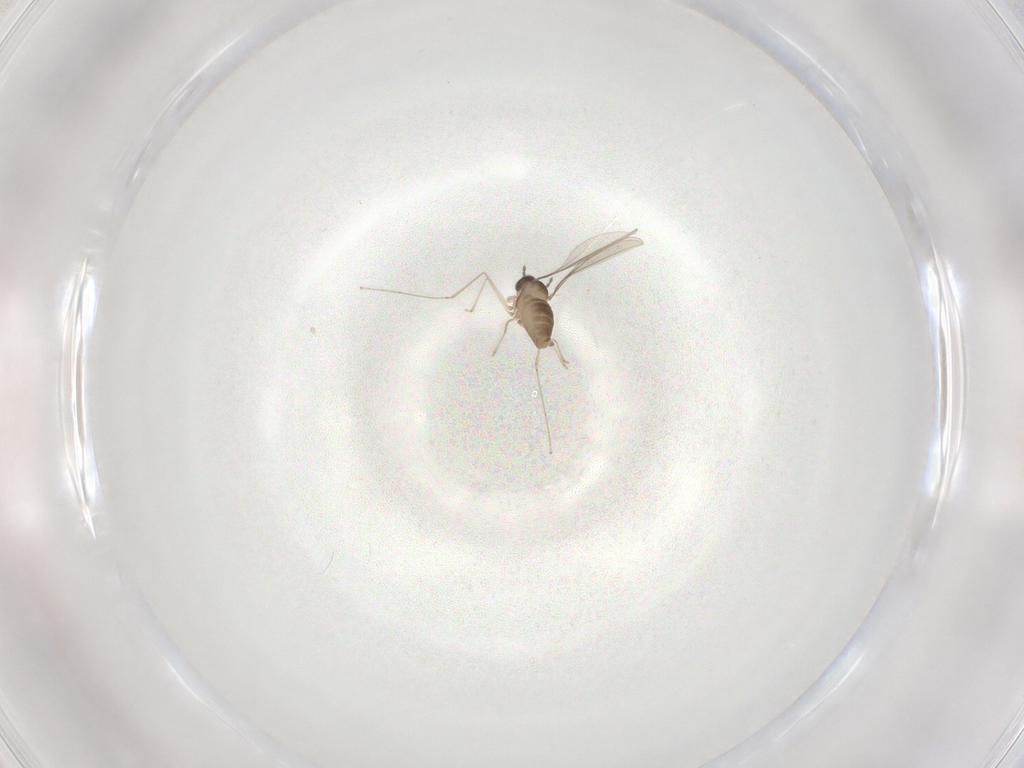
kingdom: Animalia
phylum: Arthropoda
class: Insecta
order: Diptera
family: Cecidomyiidae
